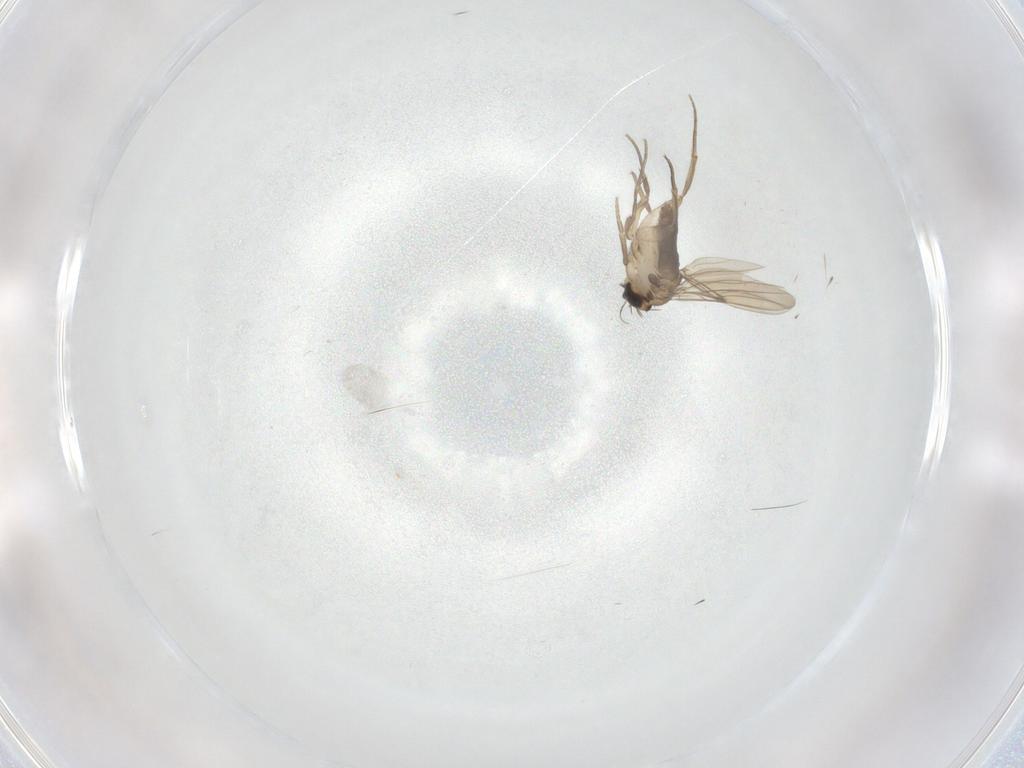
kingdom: Animalia
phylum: Arthropoda
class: Insecta
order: Diptera
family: Phoridae
